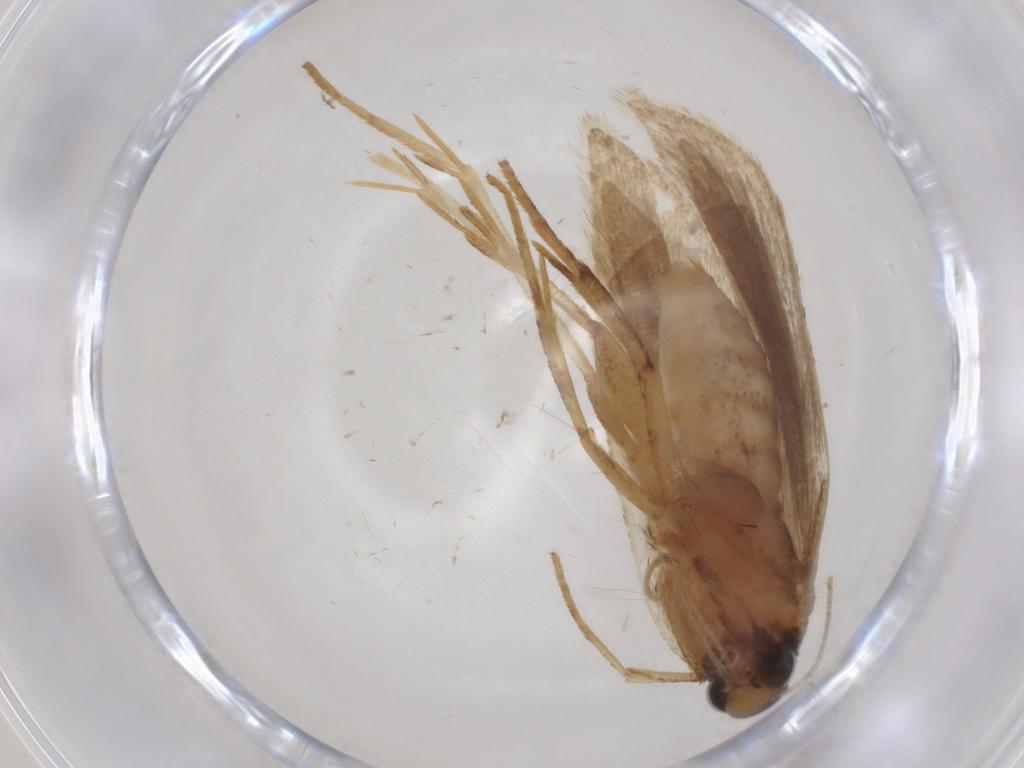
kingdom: Animalia
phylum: Arthropoda
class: Insecta
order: Lepidoptera
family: Gelechiidae
